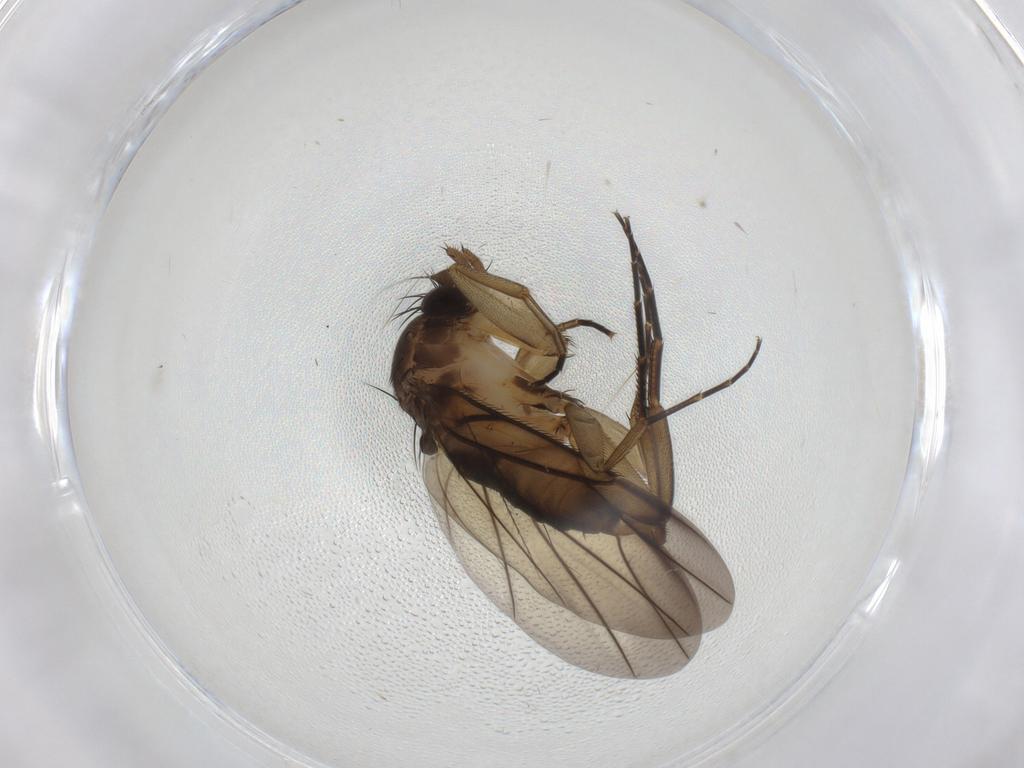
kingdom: Animalia
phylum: Arthropoda
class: Insecta
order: Diptera
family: Phoridae
